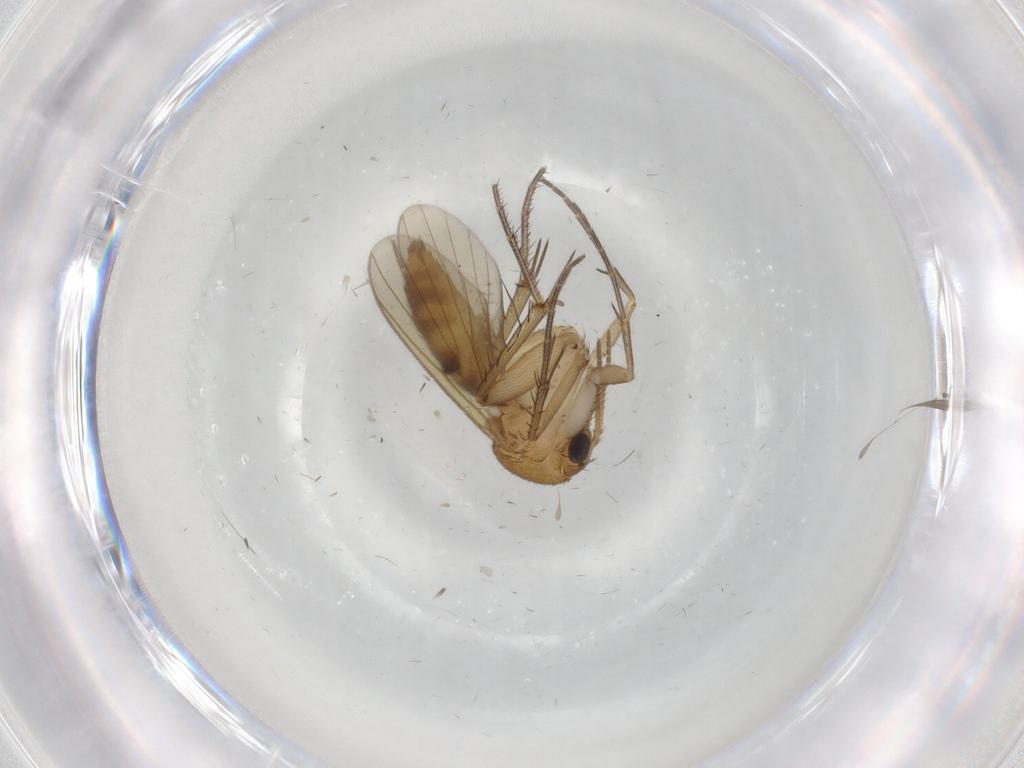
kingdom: Animalia
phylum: Arthropoda
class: Insecta
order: Diptera
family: Mycetophilidae
